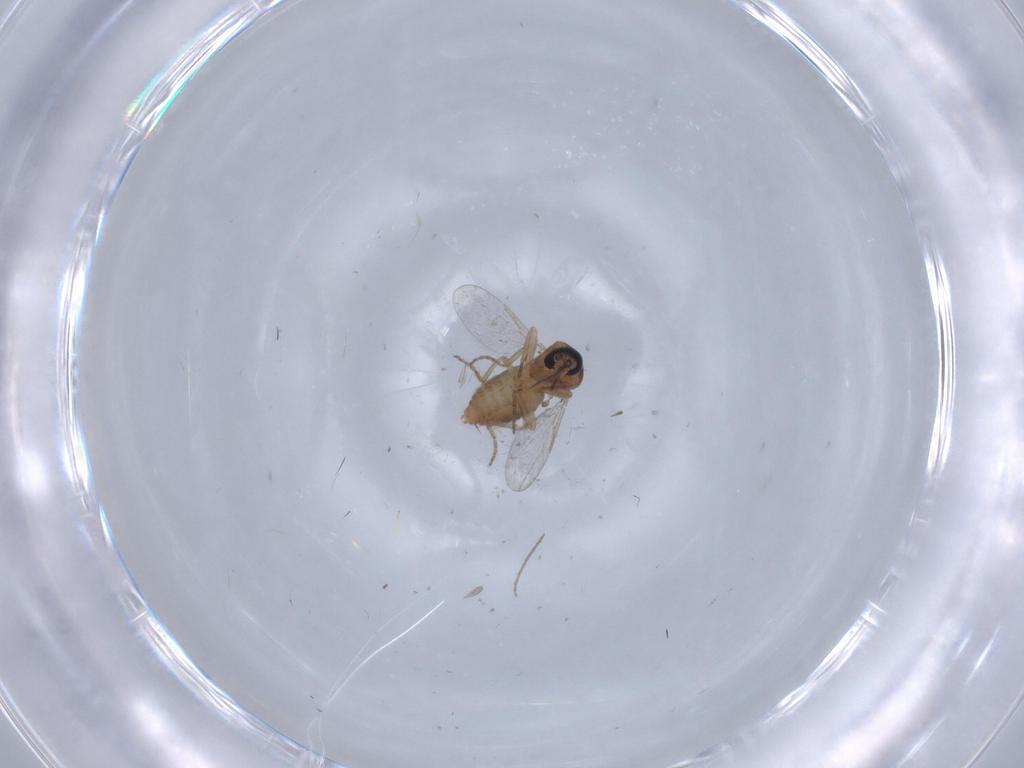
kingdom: Animalia
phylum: Arthropoda
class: Insecta
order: Diptera
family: Ceratopogonidae
